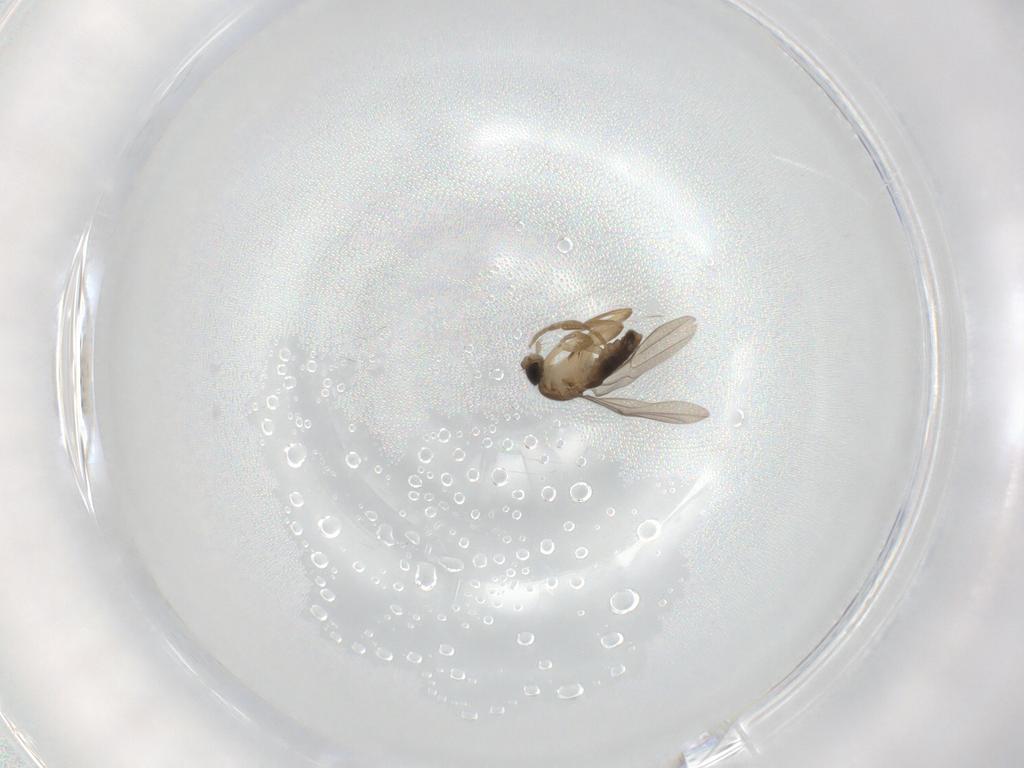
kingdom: Animalia
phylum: Arthropoda
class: Insecta
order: Diptera
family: Phoridae
